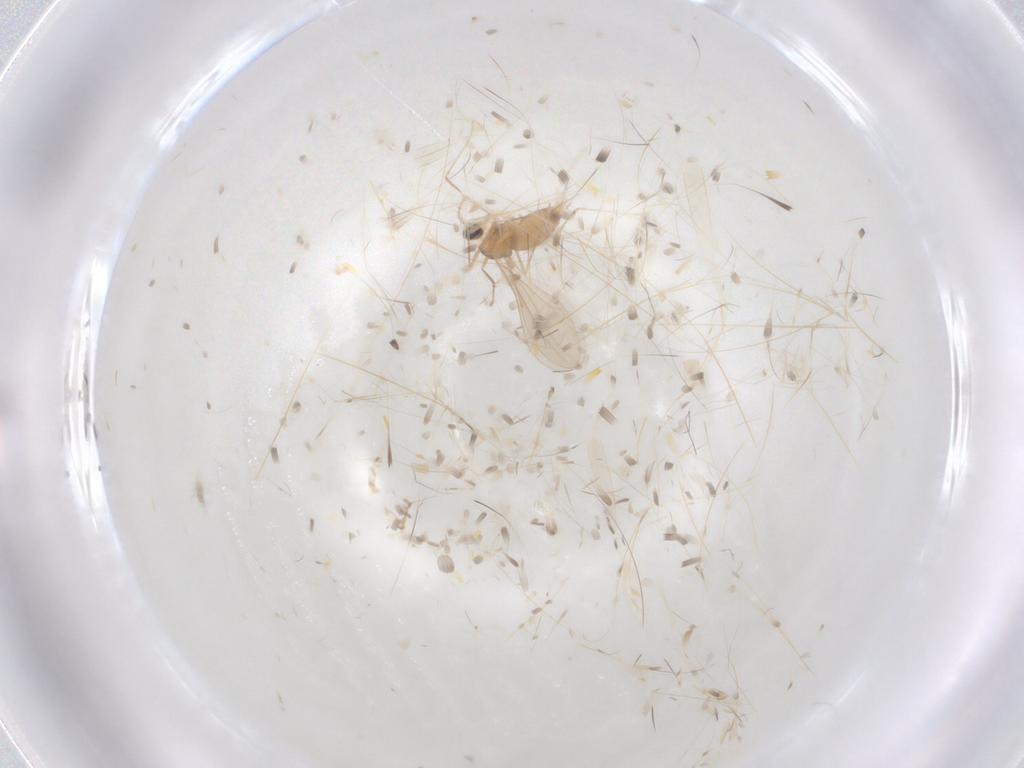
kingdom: Animalia
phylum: Arthropoda
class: Insecta
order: Diptera
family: Cecidomyiidae
